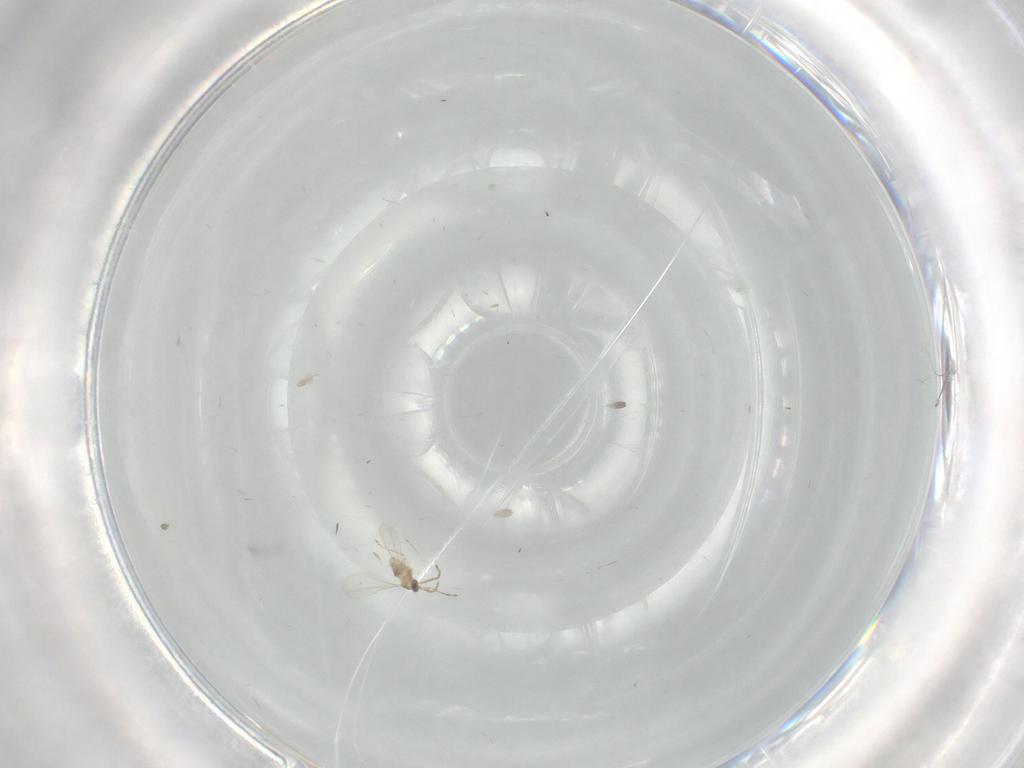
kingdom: Animalia
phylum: Arthropoda
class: Insecta
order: Diptera
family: Cecidomyiidae
